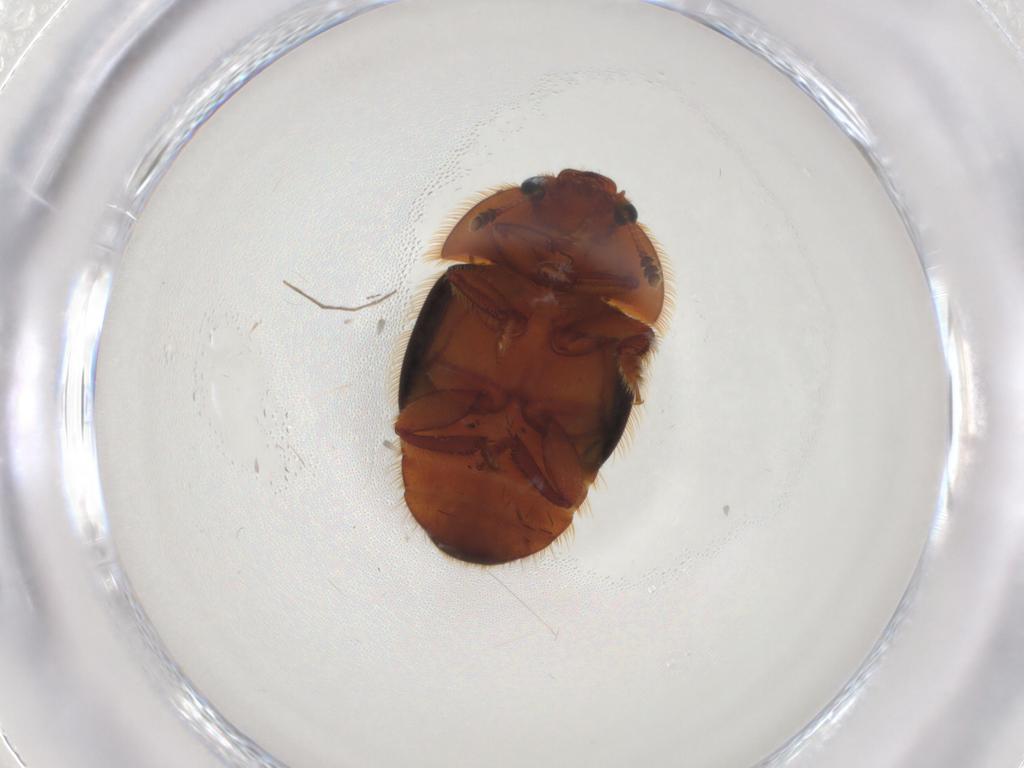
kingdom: Animalia
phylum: Arthropoda
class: Insecta
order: Coleoptera
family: Nitidulidae
